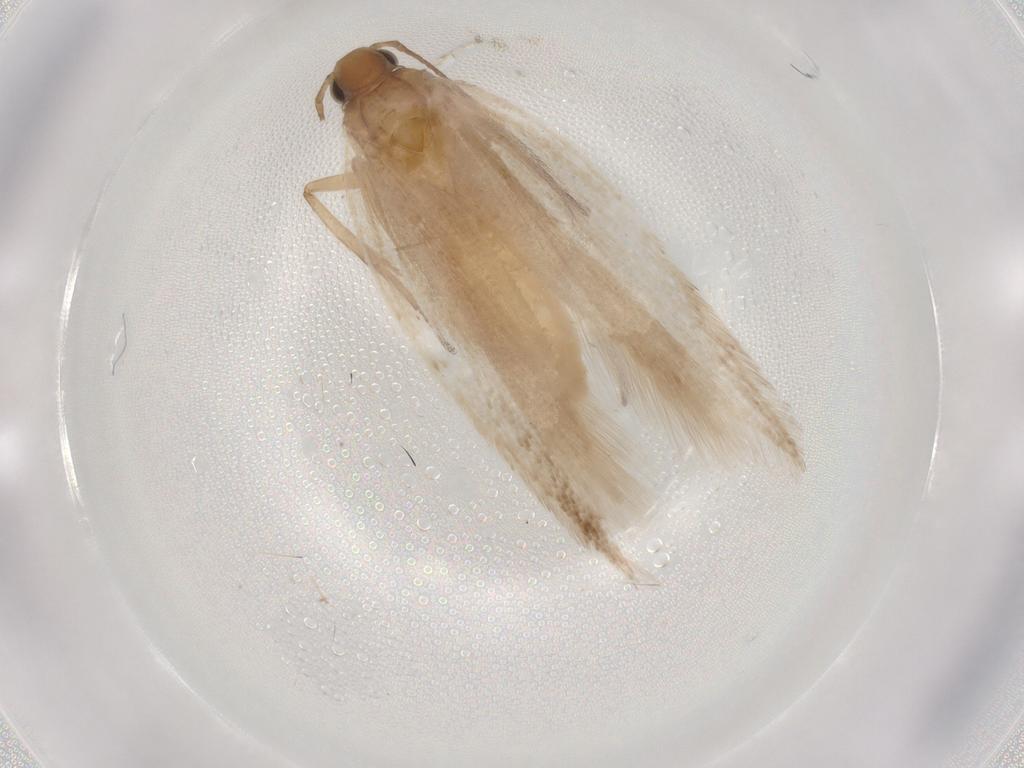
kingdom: Animalia
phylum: Arthropoda
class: Insecta
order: Lepidoptera
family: Gelechiidae
